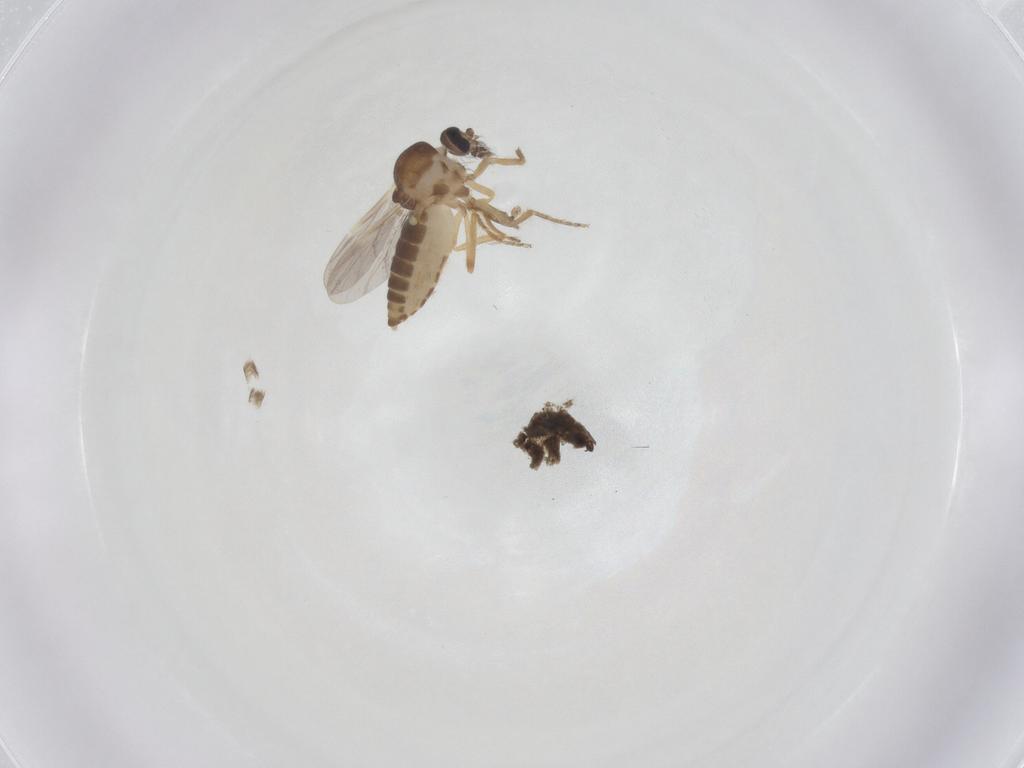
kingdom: Animalia
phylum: Arthropoda
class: Insecta
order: Diptera
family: Ceratopogonidae
